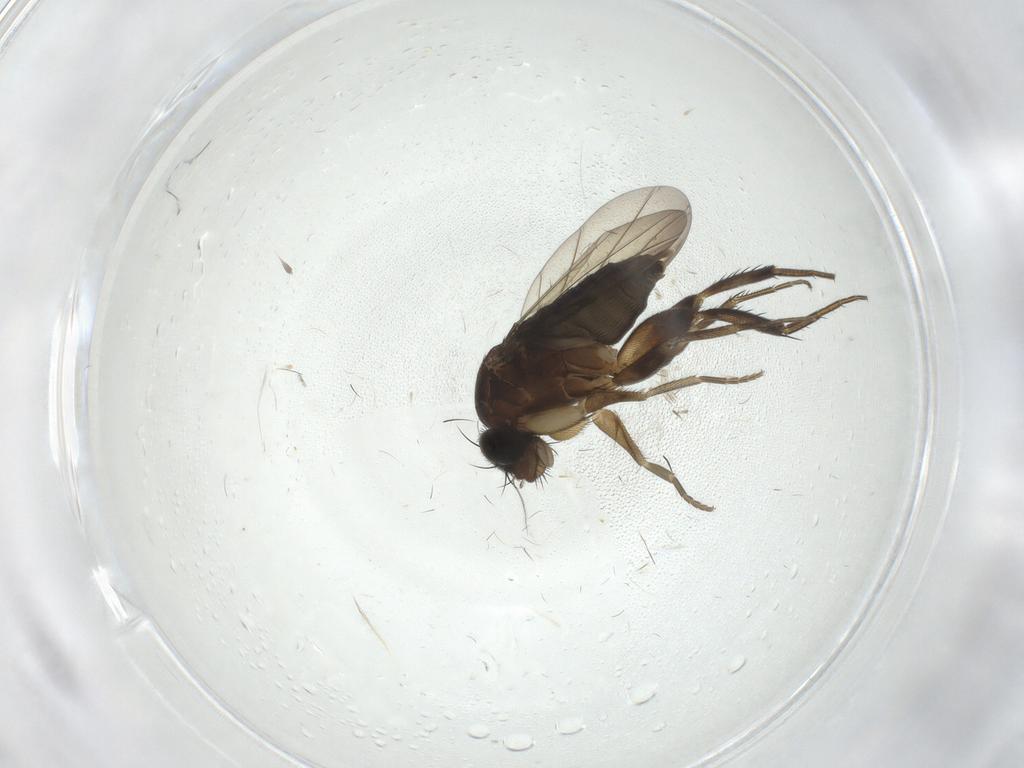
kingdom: Animalia
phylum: Arthropoda
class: Insecta
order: Diptera
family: Phoridae
